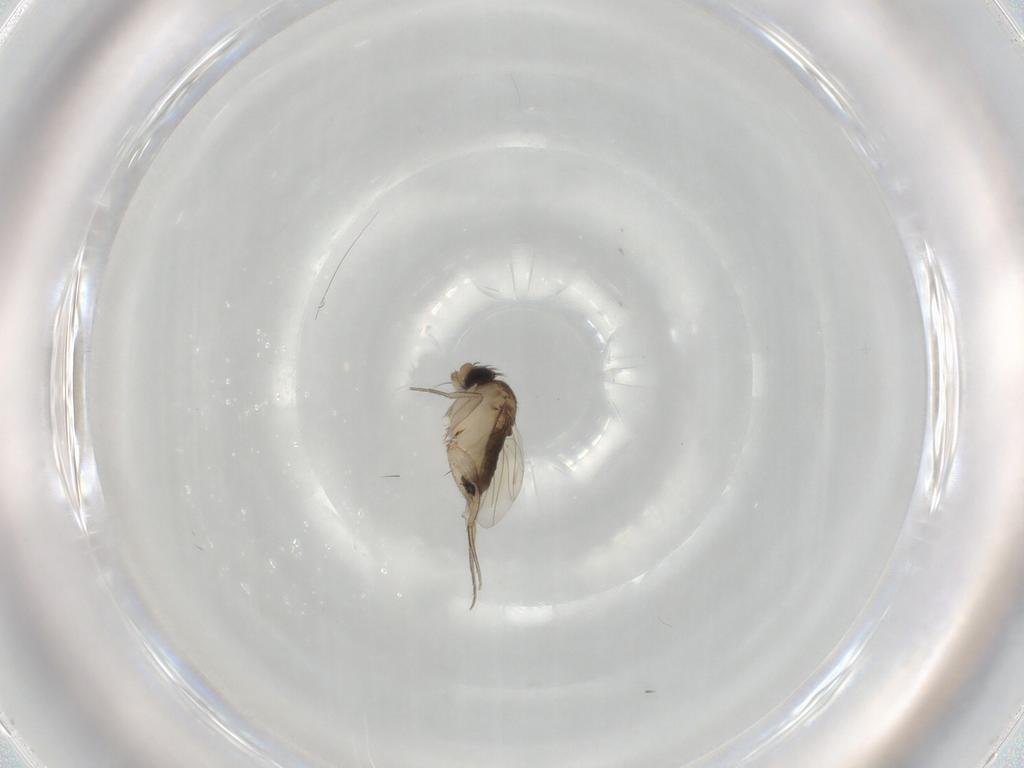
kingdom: Animalia
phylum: Arthropoda
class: Insecta
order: Diptera
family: Phoridae
